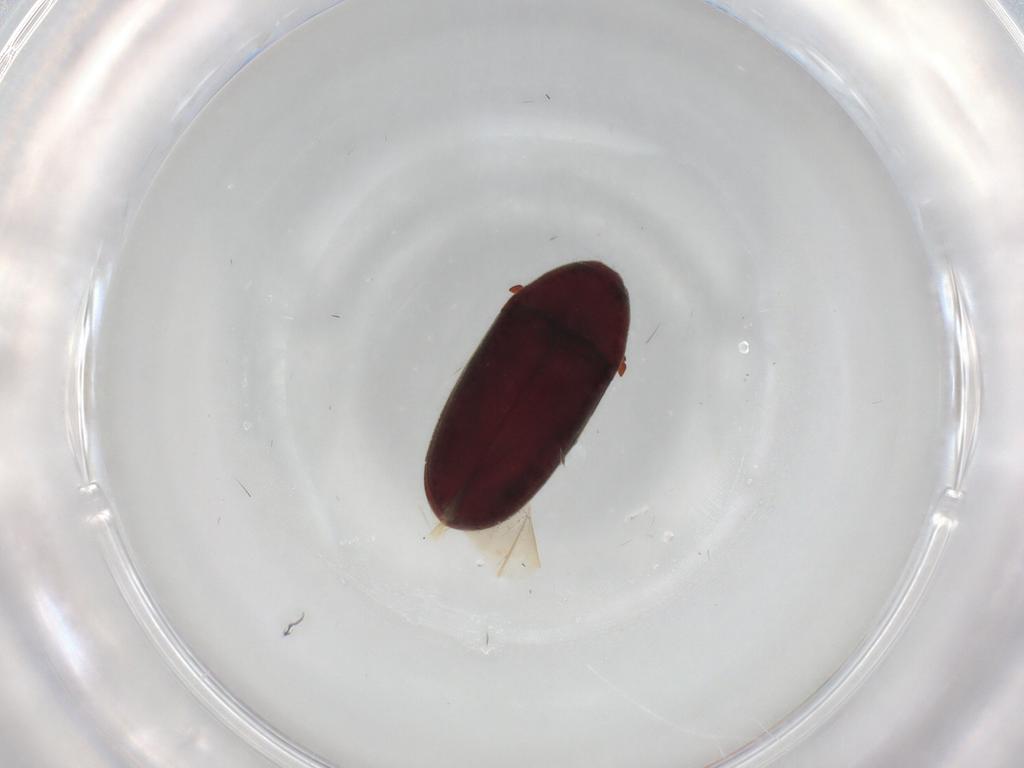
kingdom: Animalia
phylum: Arthropoda
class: Insecta
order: Coleoptera
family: Throscidae
